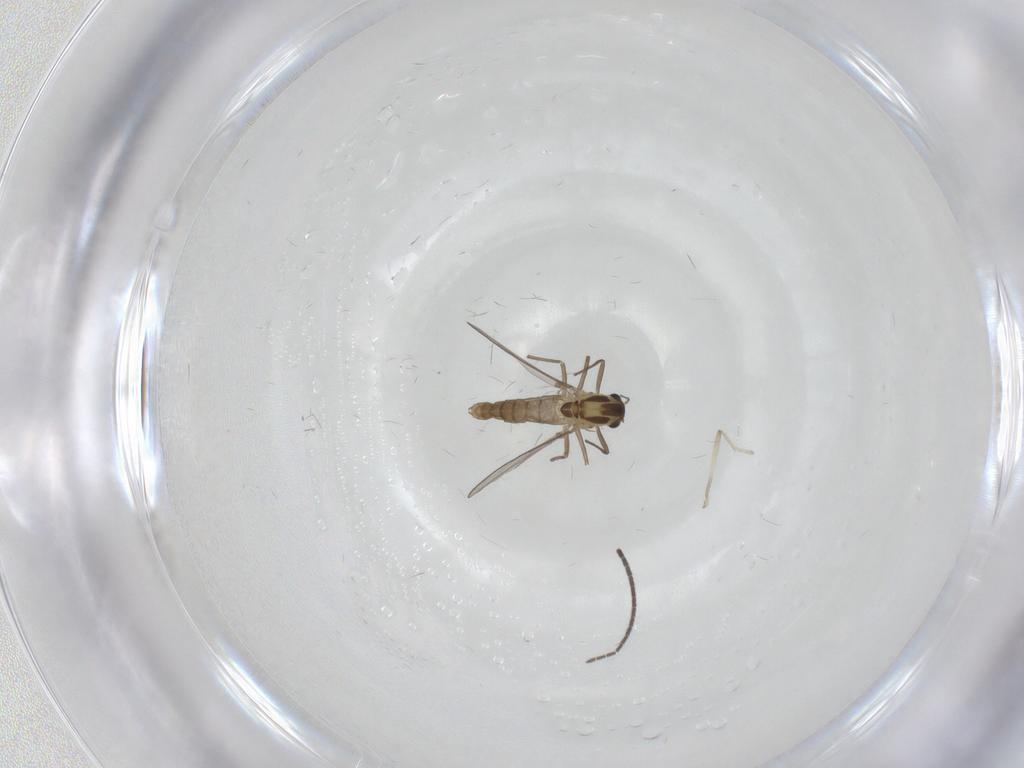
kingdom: Animalia
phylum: Arthropoda
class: Insecta
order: Diptera
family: Chironomidae
